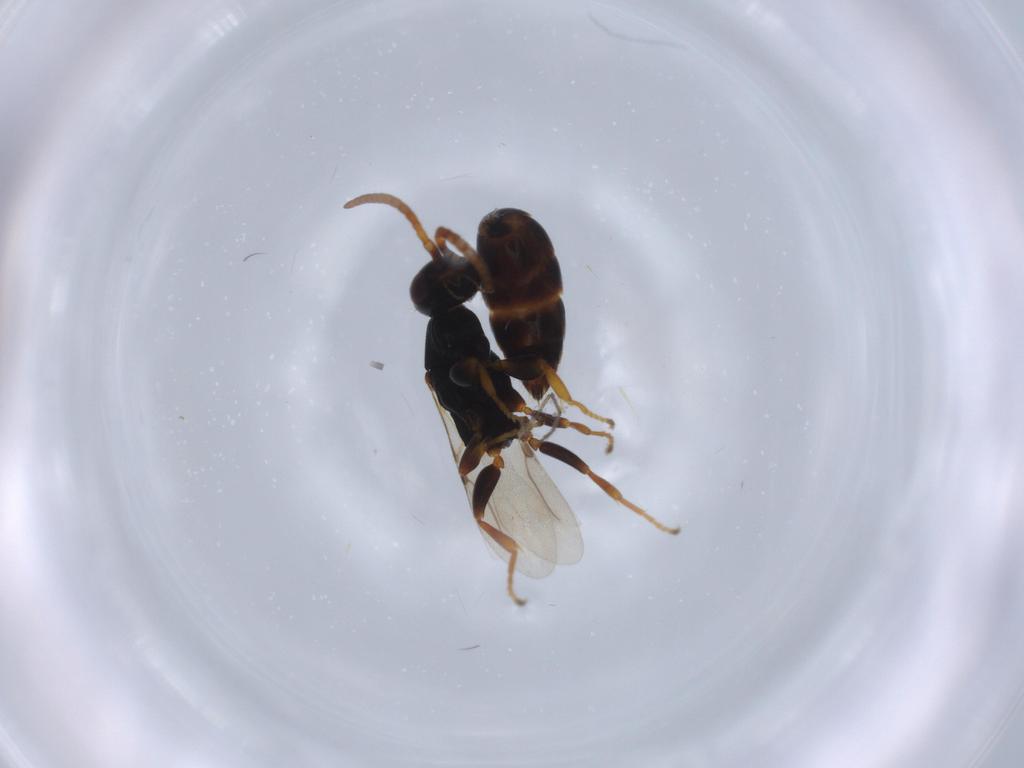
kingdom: Animalia
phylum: Arthropoda
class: Insecta
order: Hymenoptera
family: Bethylidae
